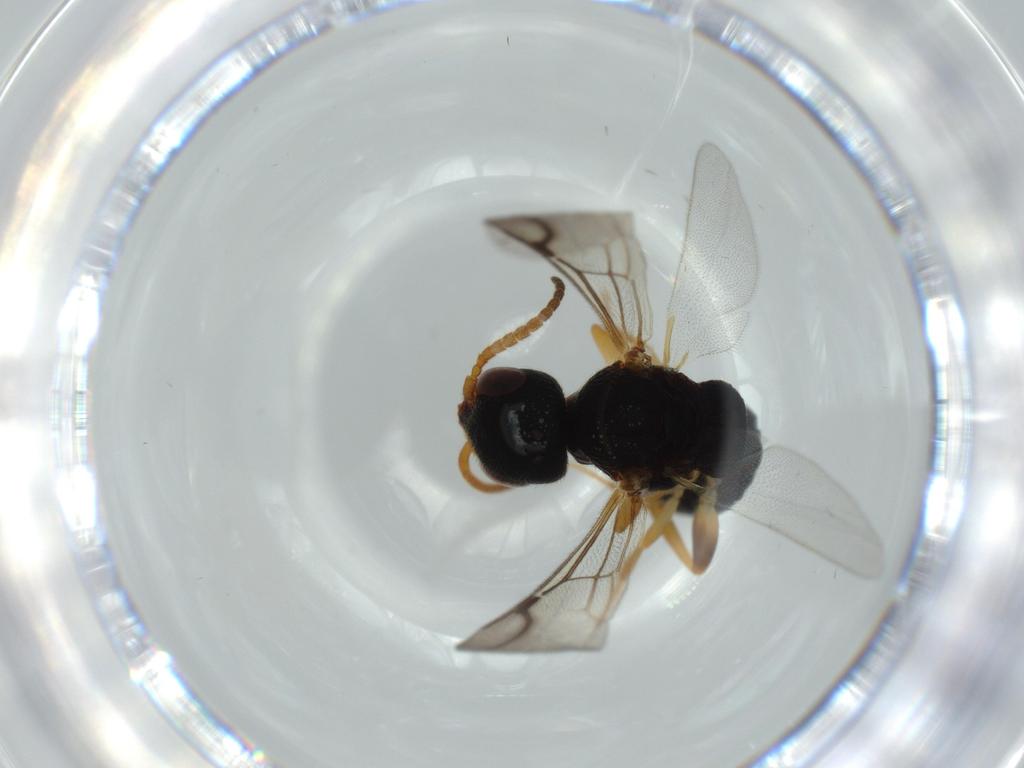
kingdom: Animalia
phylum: Arthropoda
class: Insecta
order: Hymenoptera
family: Bethylidae
